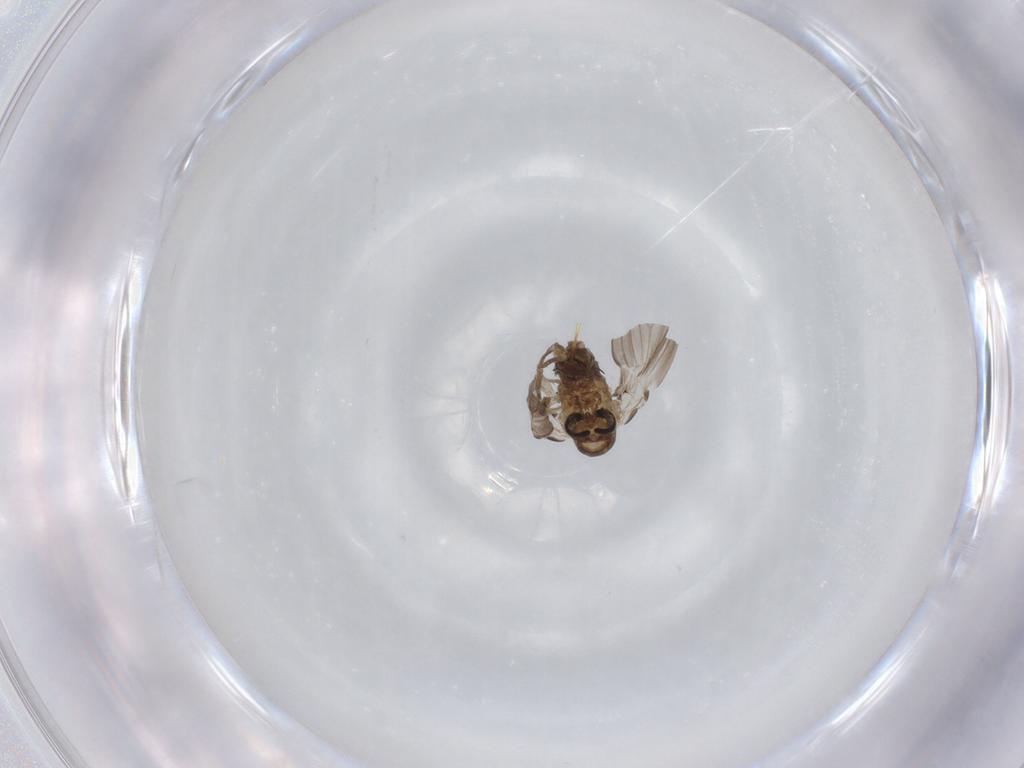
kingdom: Animalia
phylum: Arthropoda
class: Insecta
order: Diptera
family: Psychodidae
